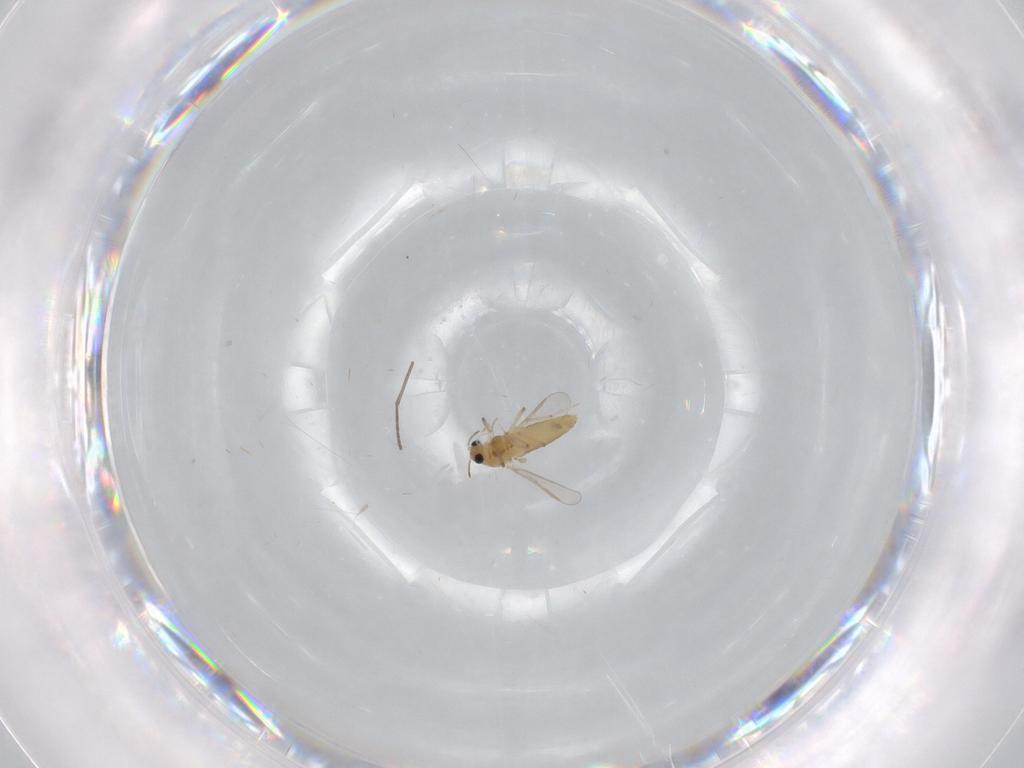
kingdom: Animalia
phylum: Arthropoda
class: Insecta
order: Diptera
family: Chironomidae
